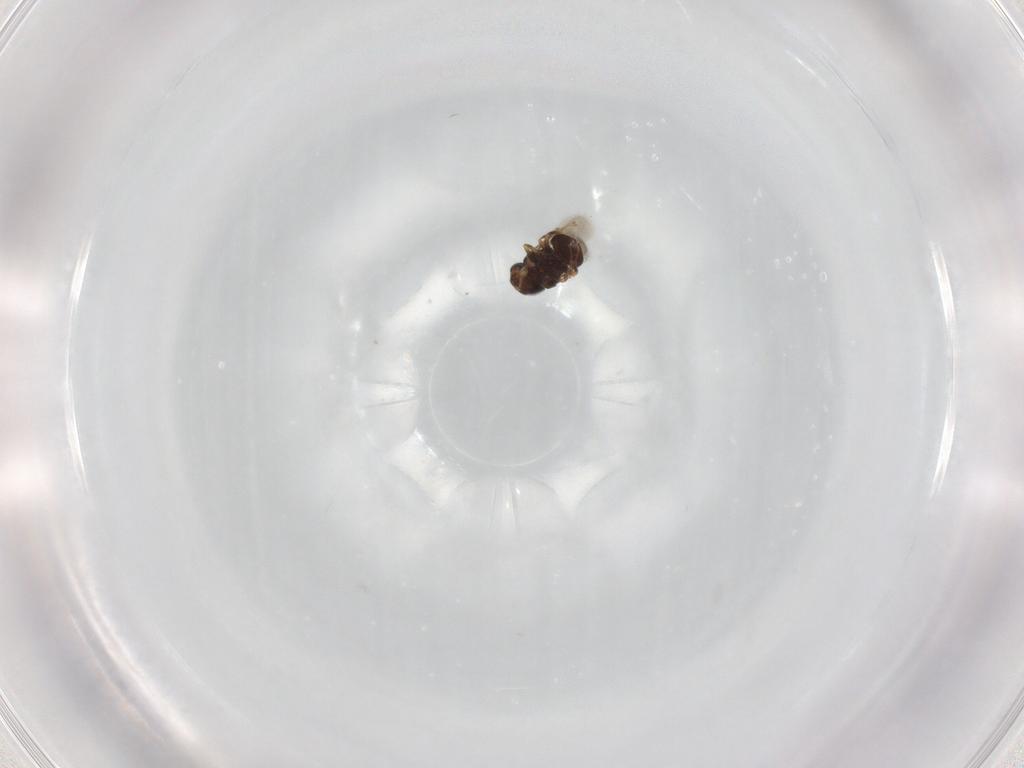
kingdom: Animalia
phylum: Arthropoda
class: Insecta
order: Hymenoptera
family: Scelionidae
